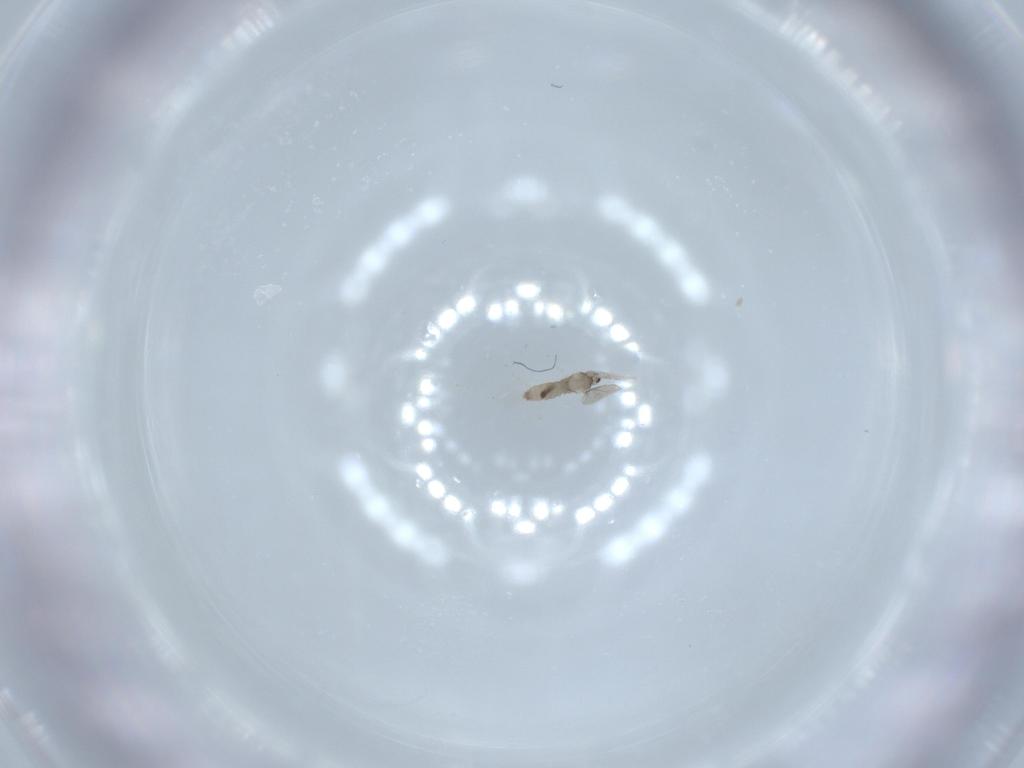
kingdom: Animalia
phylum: Arthropoda
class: Insecta
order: Diptera
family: Cecidomyiidae
